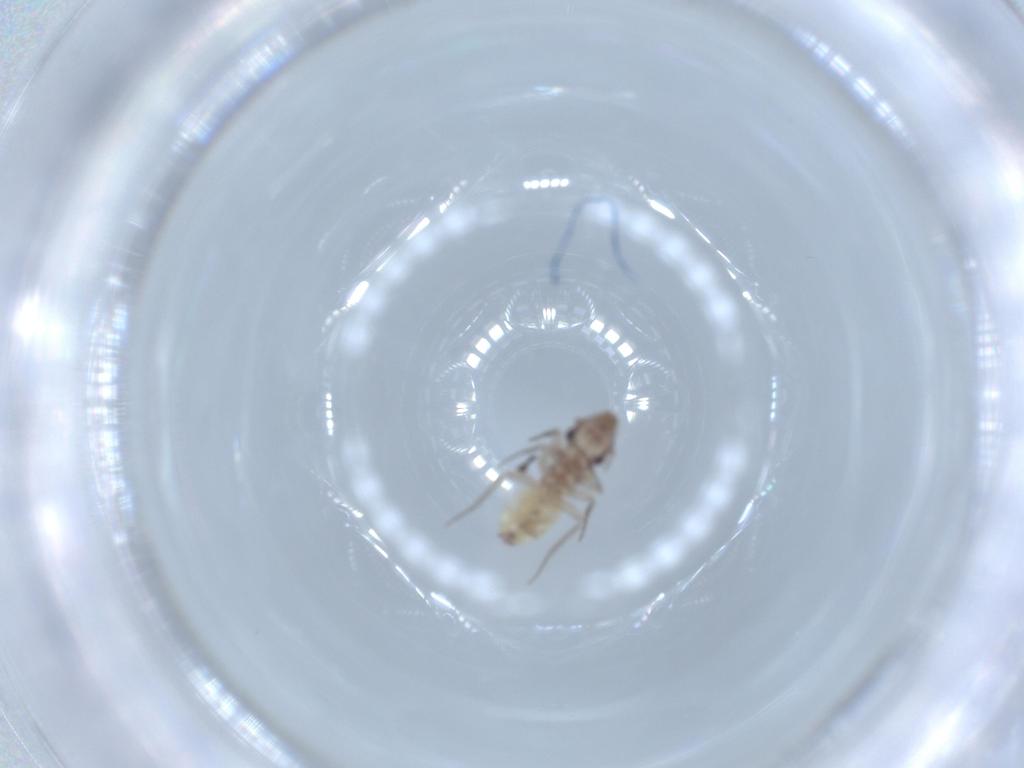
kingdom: Animalia
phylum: Arthropoda
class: Insecta
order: Psocodea
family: Lepidopsocidae
